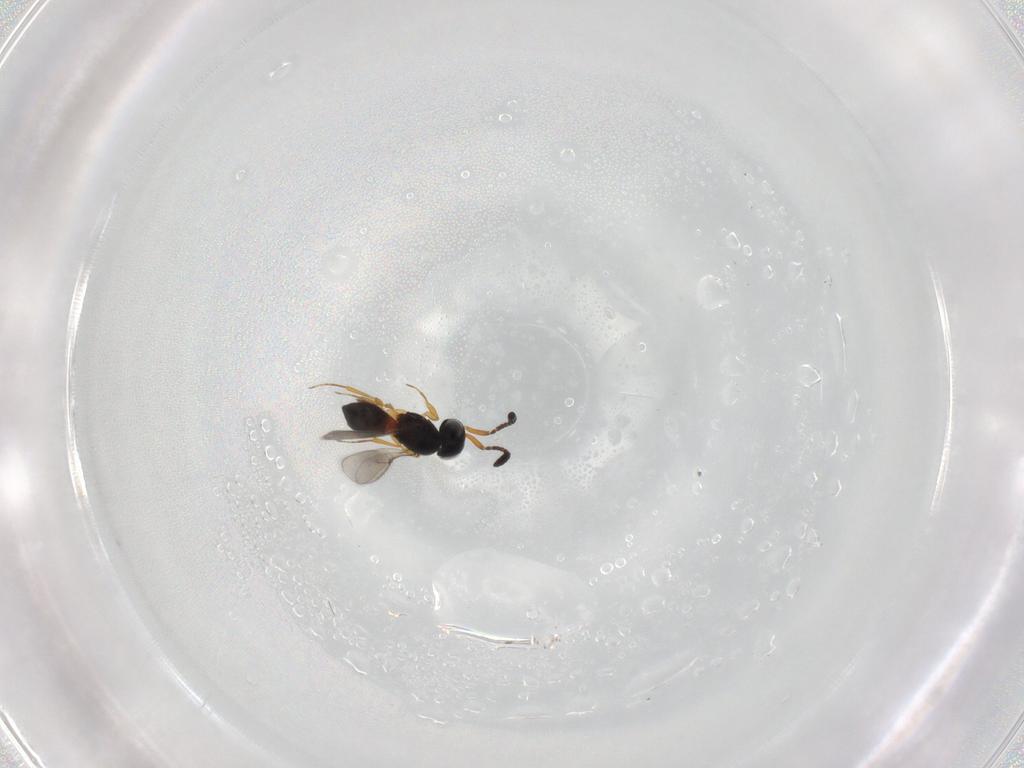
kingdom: Animalia
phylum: Arthropoda
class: Insecta
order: Hymenoptera
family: Scelionidae
